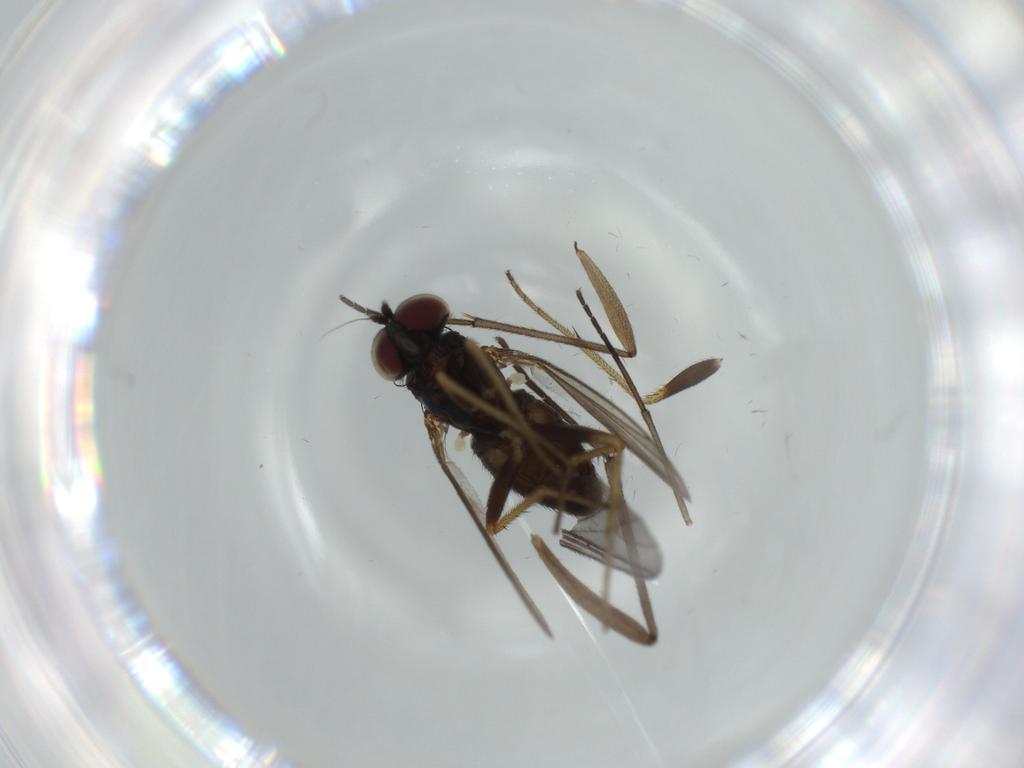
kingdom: Animalia
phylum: Arthropoda
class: Insecta
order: Diptera
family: Sciaridae
